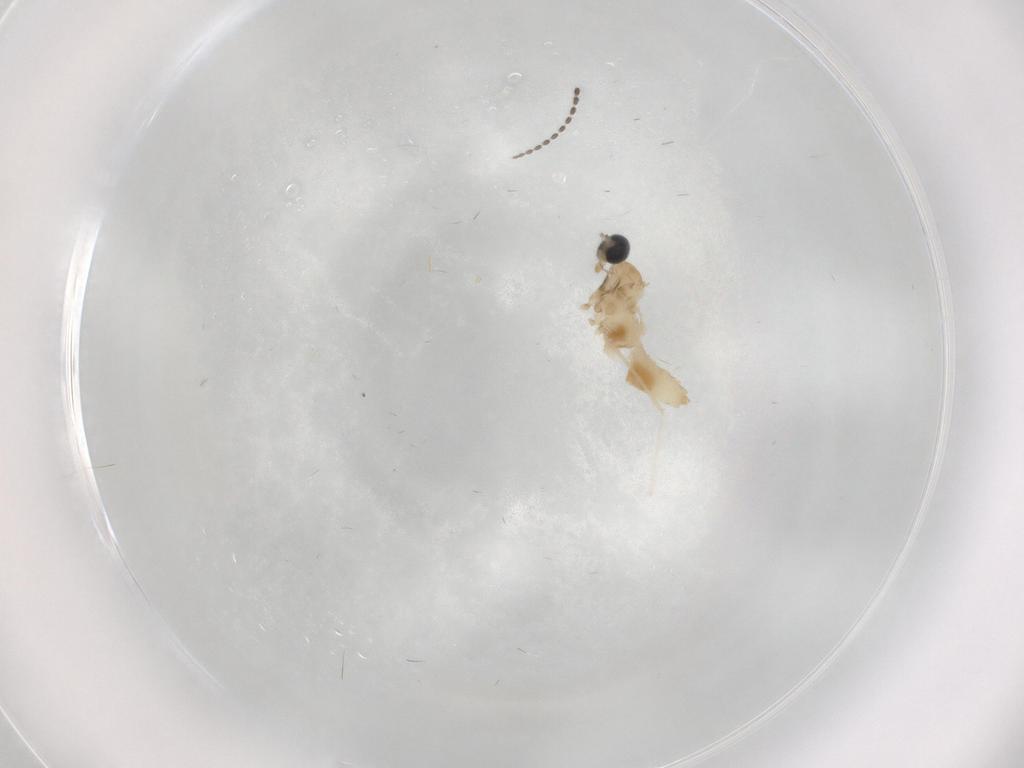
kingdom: Animalia
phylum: Arthropoda
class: Insecta
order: Diptera
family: Cecidomyiidae
